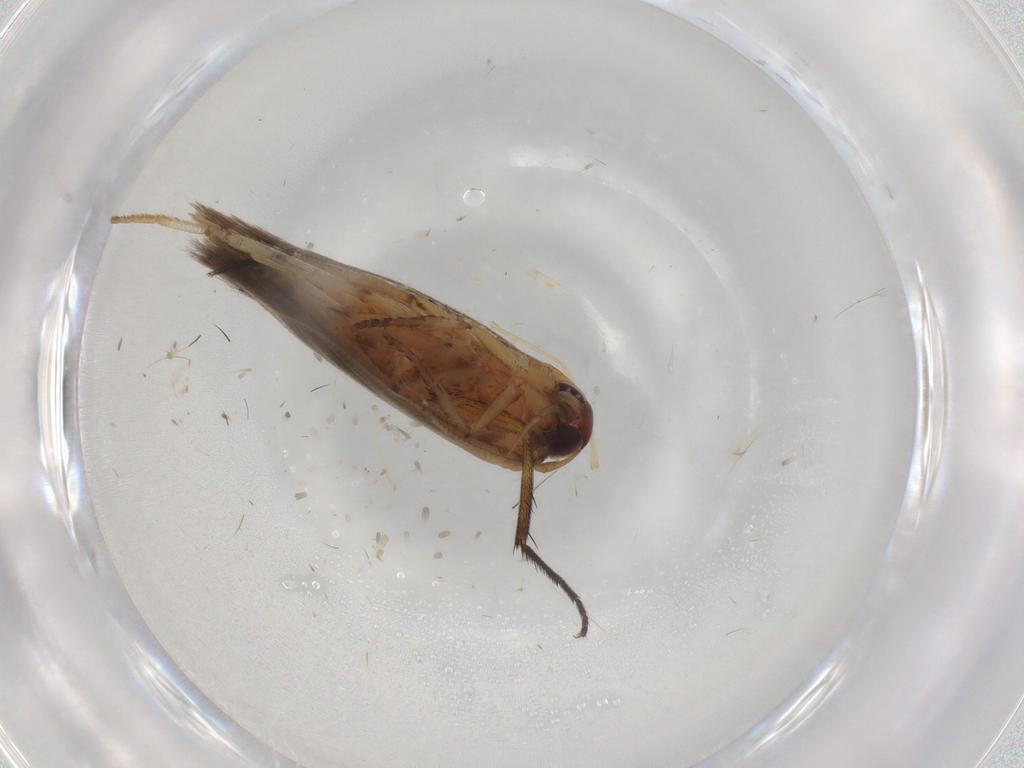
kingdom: Animalia
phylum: Arthropoda
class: Insecta
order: Lepidoptera
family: Cosmopterigidae
